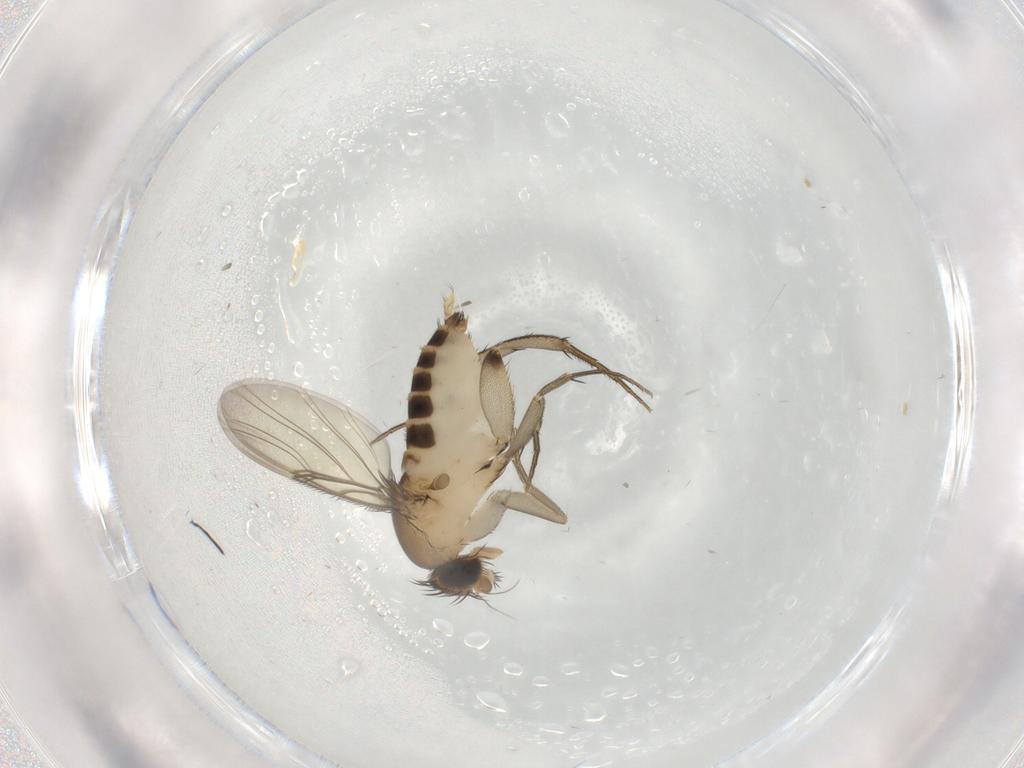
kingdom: Animalia
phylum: Arthropoda
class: Insecta
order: Diptera
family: Phoridae
